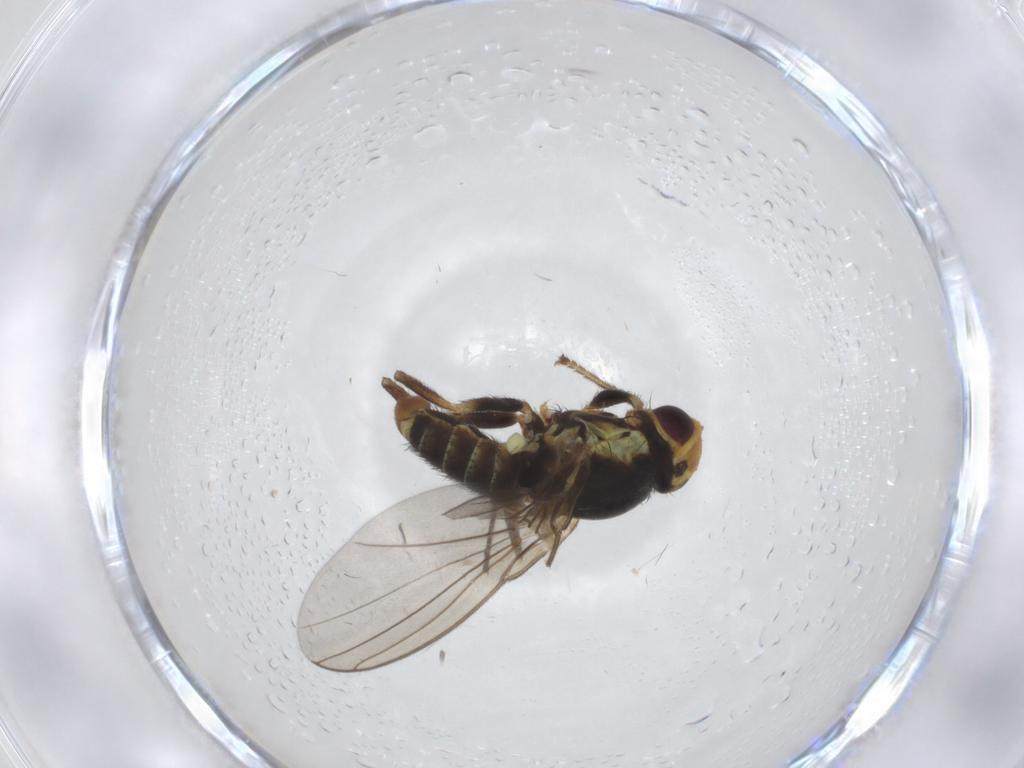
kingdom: Animalia
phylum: Arthropoda
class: Insecta
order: Diptera
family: Agromyzidae
